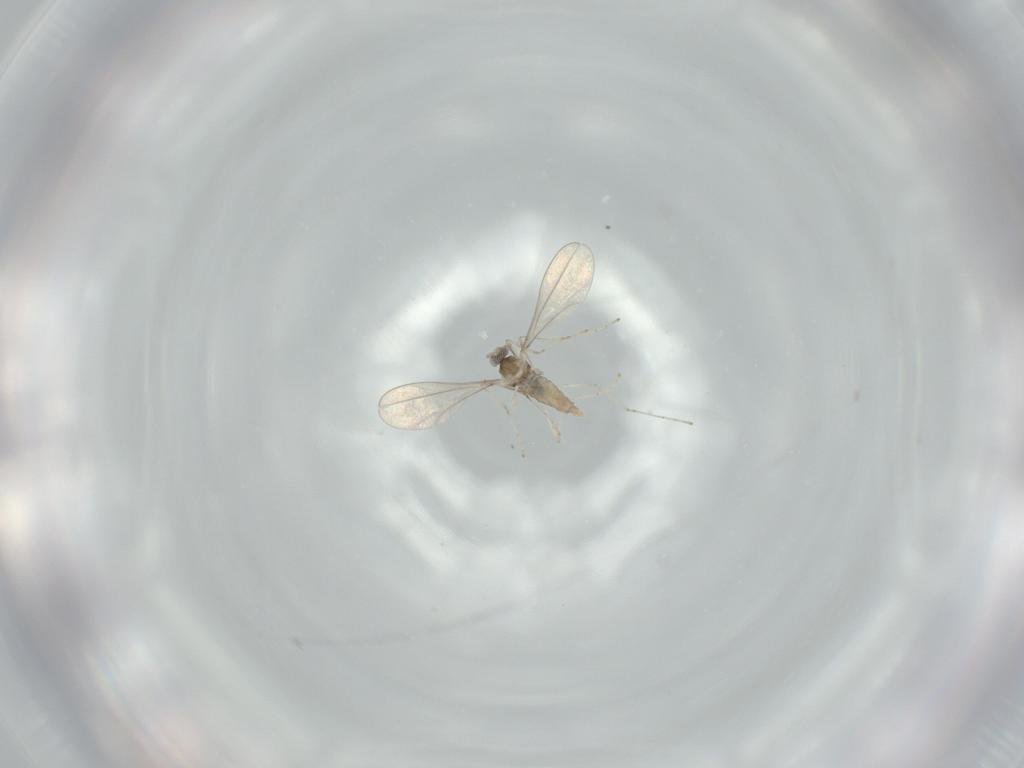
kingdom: Animalia
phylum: Arthropoda
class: Insecta
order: Diptera
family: Cecidomyiidae
